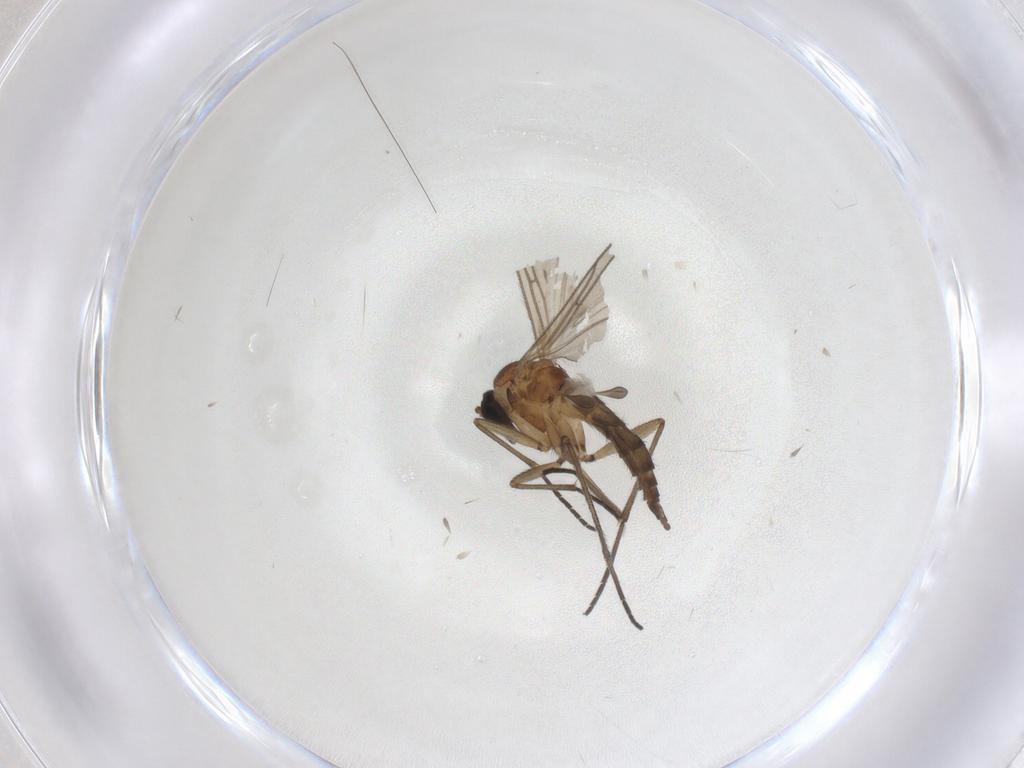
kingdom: Animalia
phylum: Arthropoda
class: Insecta
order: Diptera
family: Sciaridae
